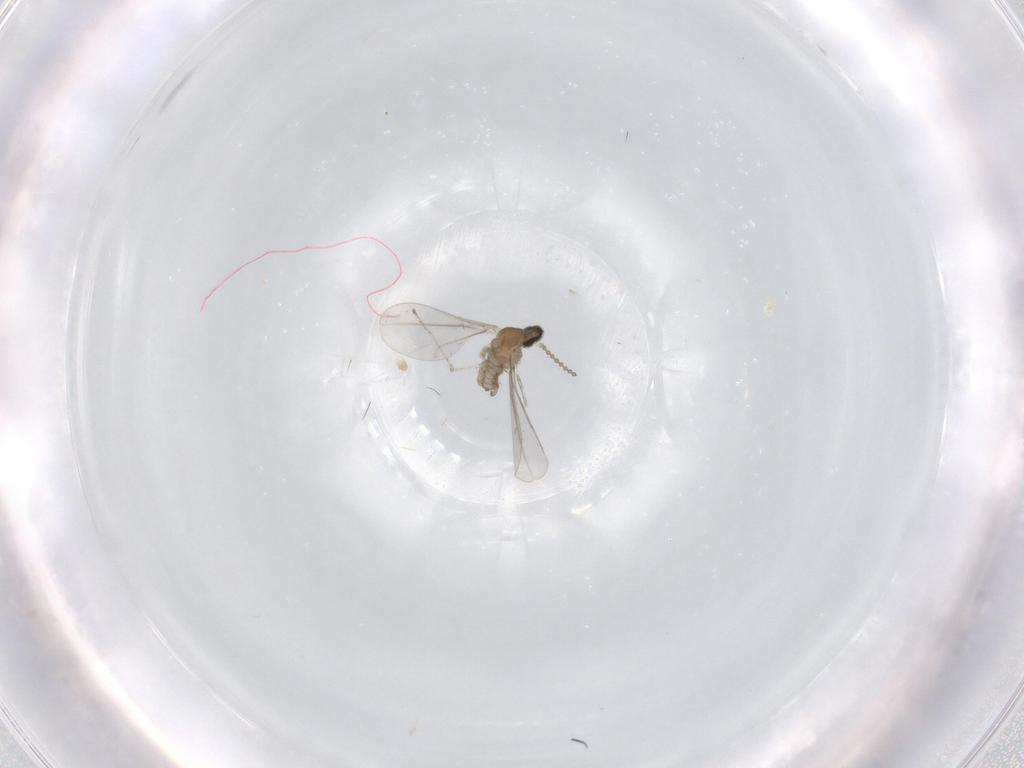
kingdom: Animalia
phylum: Arthropoda
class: Insecta
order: Diptera
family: Cecidomyiidae
